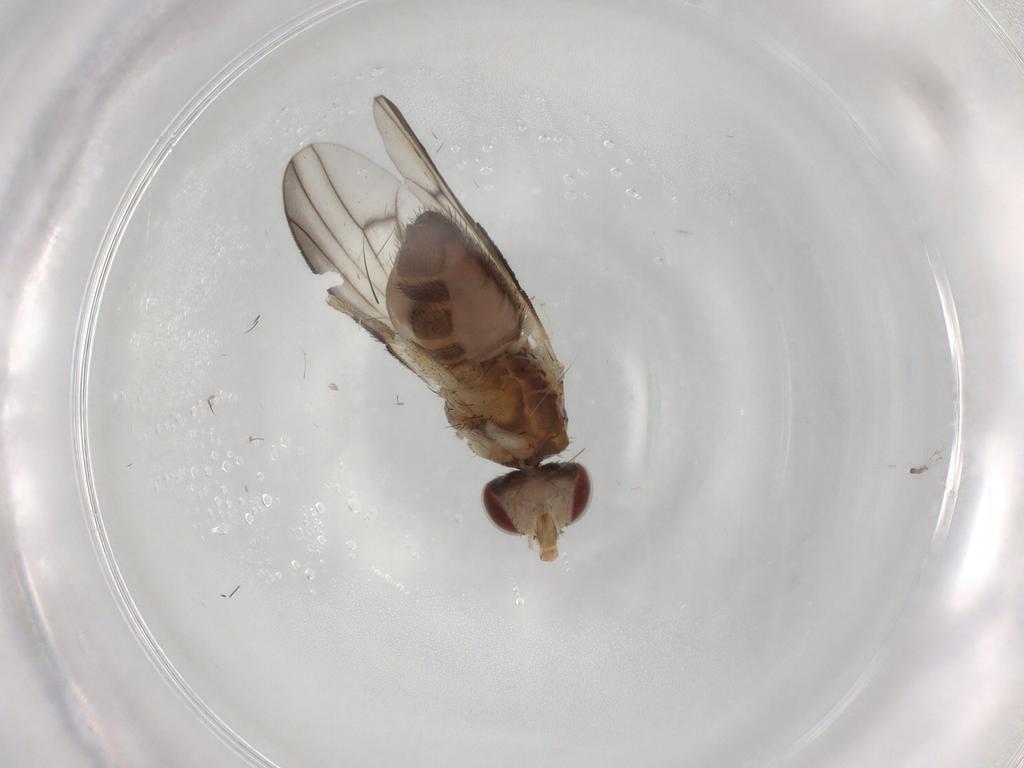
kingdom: Animalia
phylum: Arthropoda
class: Insecta
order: Diptera
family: Heleomyzidae
